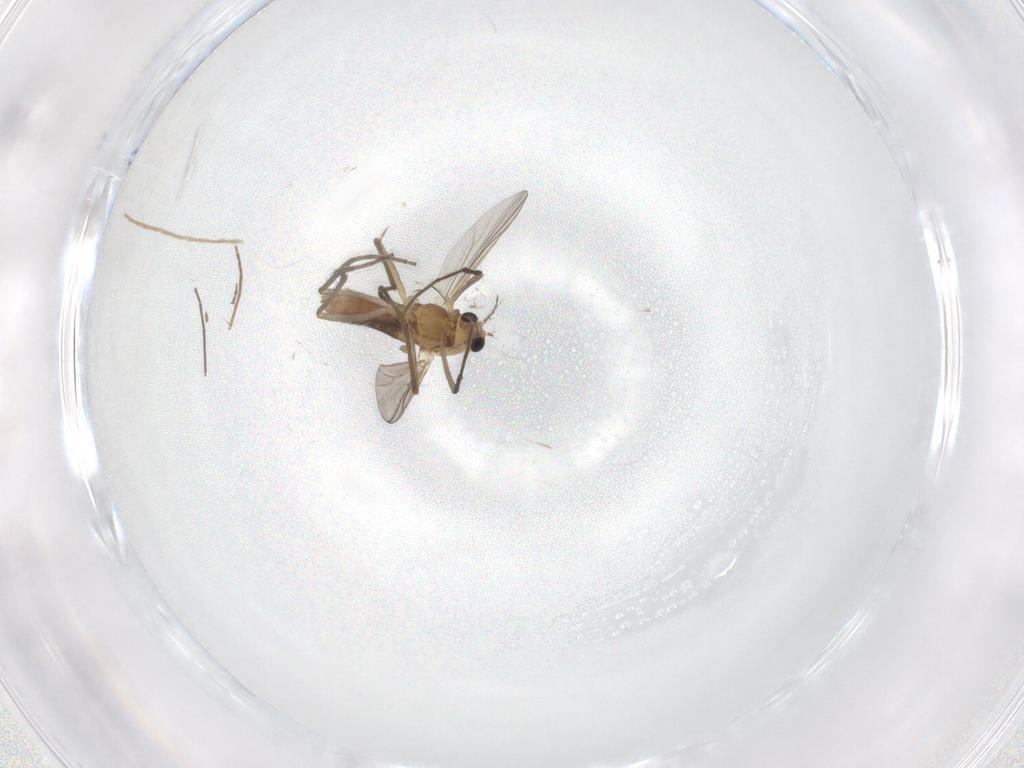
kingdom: Animalia
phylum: Arthropoda
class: Insecta
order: Diptera
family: Chironomidae
